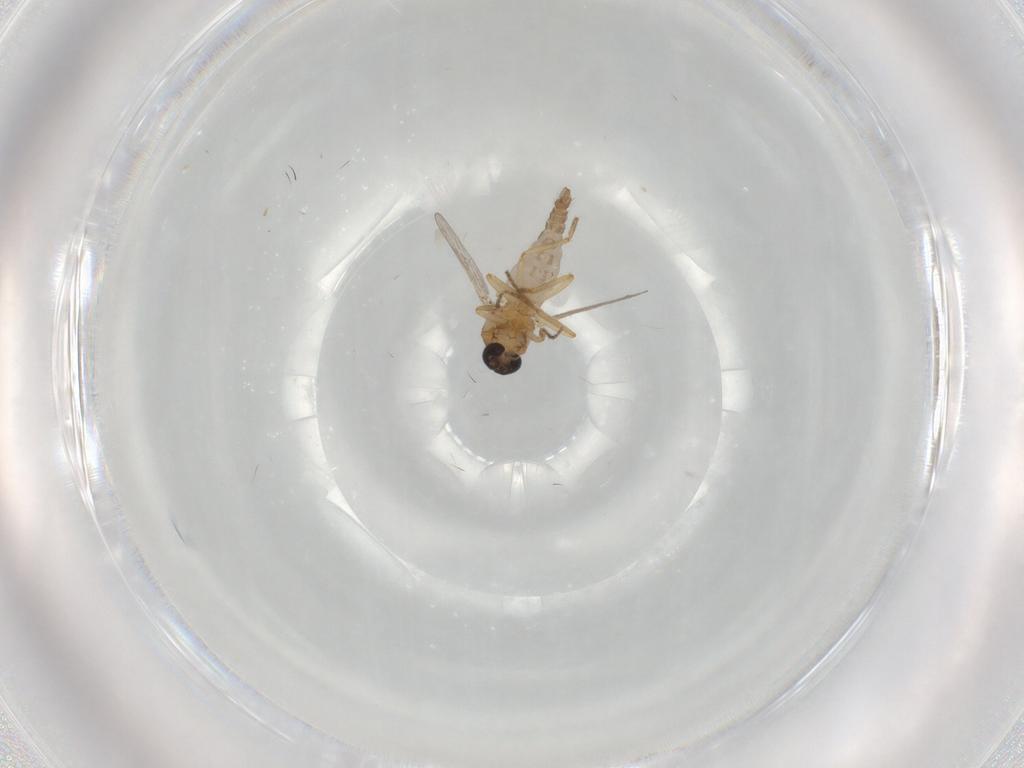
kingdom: Animalia
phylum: Arthropoda
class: Insecta
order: Diptera
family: Ceratopogonidae
